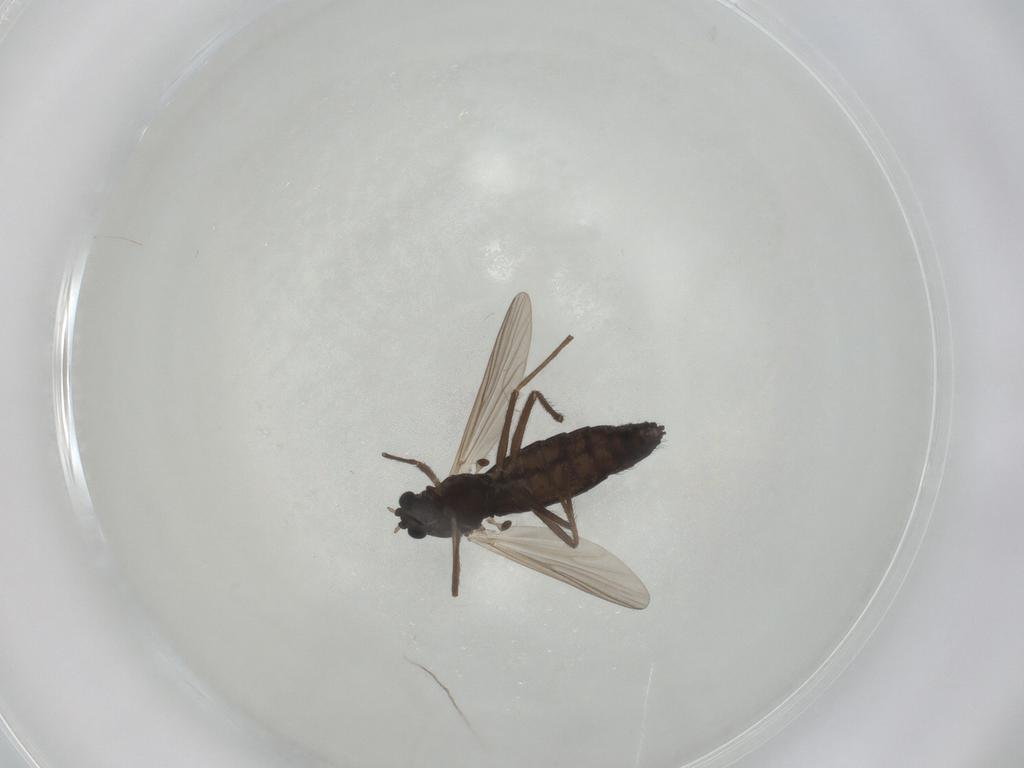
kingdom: Animalia
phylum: Arthropoda
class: Insecta
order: Diptera
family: Chironomidae
